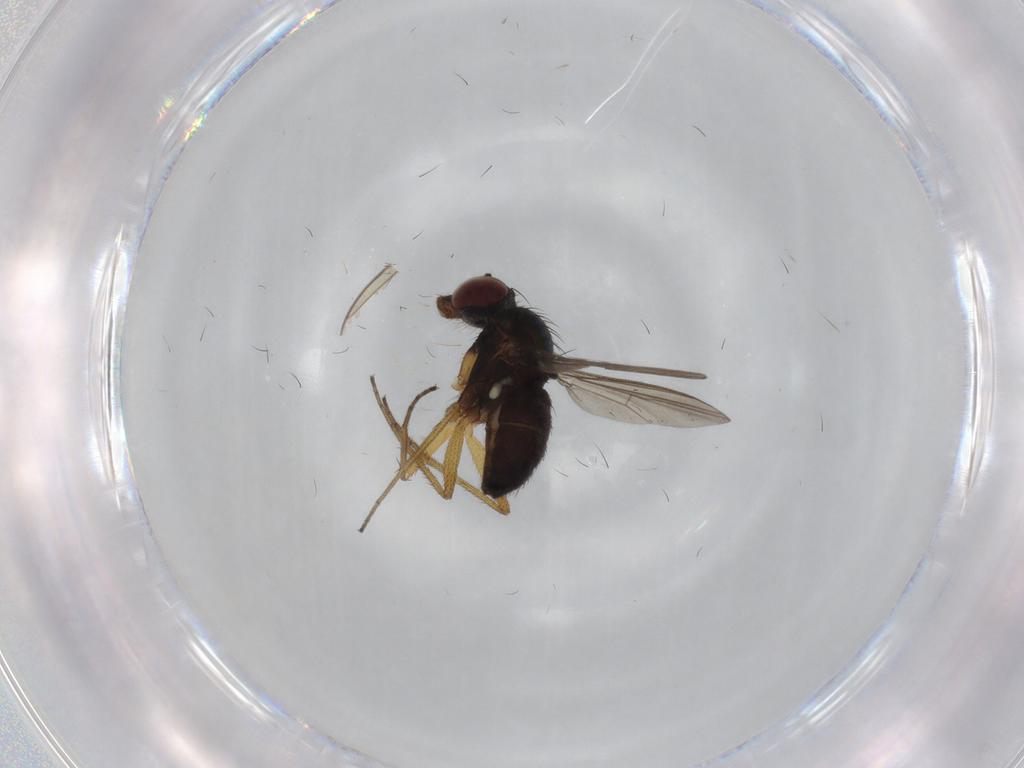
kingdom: Animalia
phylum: Arthropoda
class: Insecta
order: Diptera
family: Dolichopodidae
